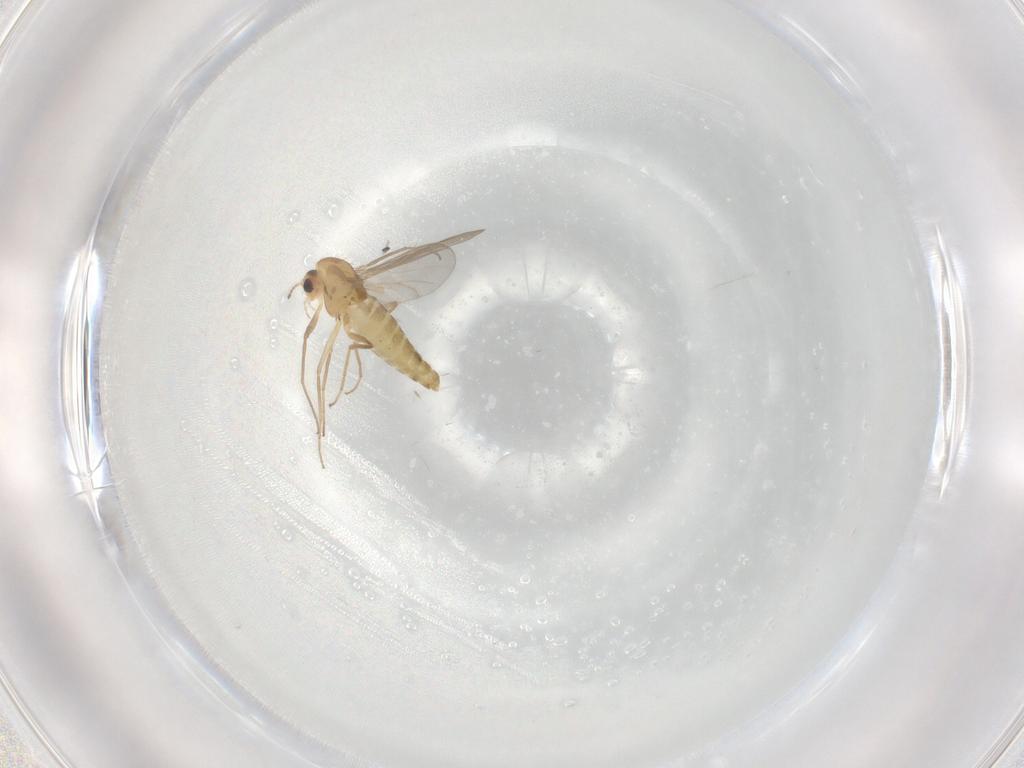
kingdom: Animalia
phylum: Arthropoda
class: Insecta
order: Diptera
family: Chironomidae
